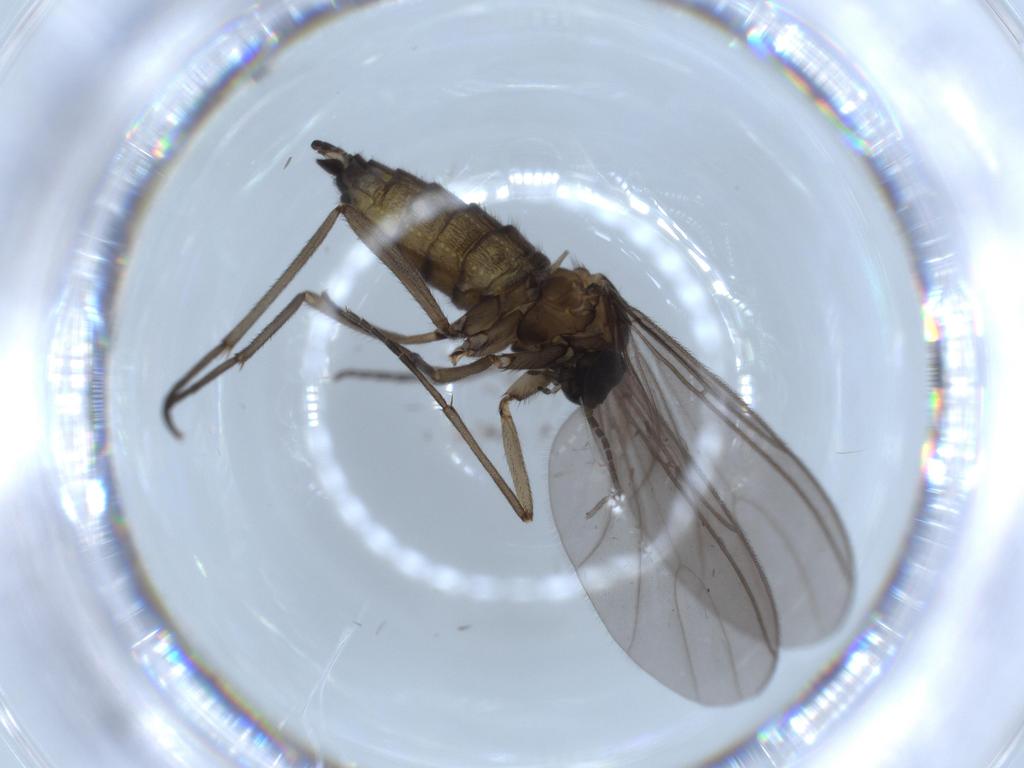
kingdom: Animalia
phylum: Arthropoda
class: Insecta
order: Diptera
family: Sciaridae
